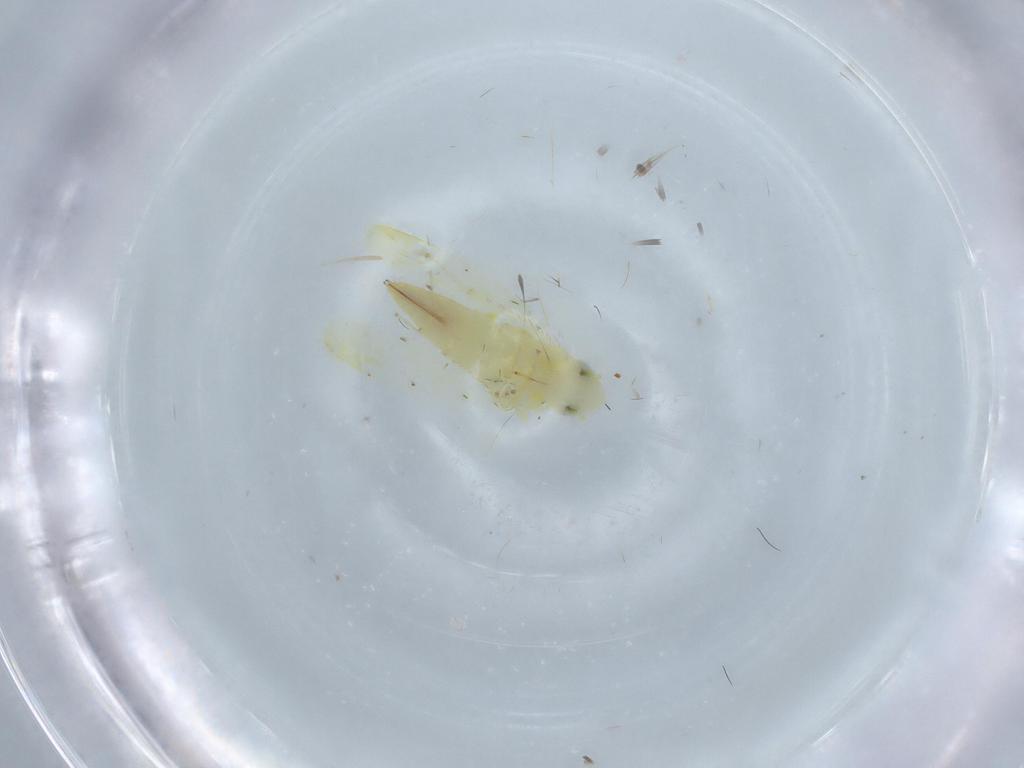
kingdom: Animalia
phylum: Arthropoda
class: Insecta
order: Hemiptera
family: Cicadellidae
